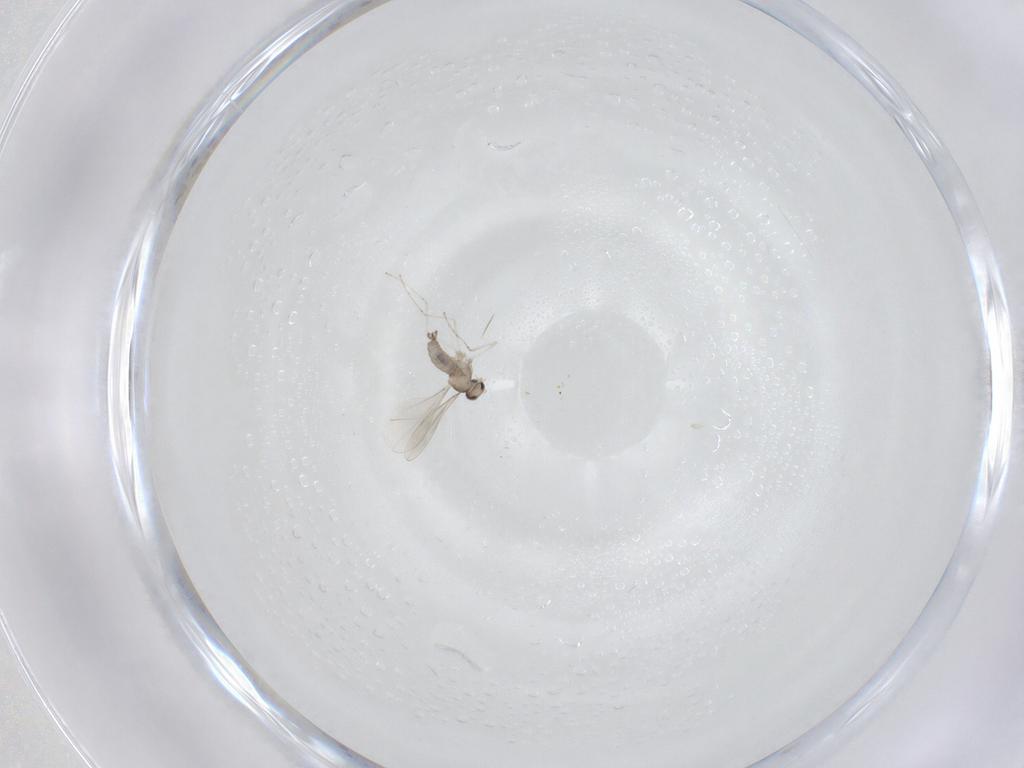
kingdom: Animalia
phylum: Arthropoda
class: Insecta
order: Diptera
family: Cecidomyiidae
